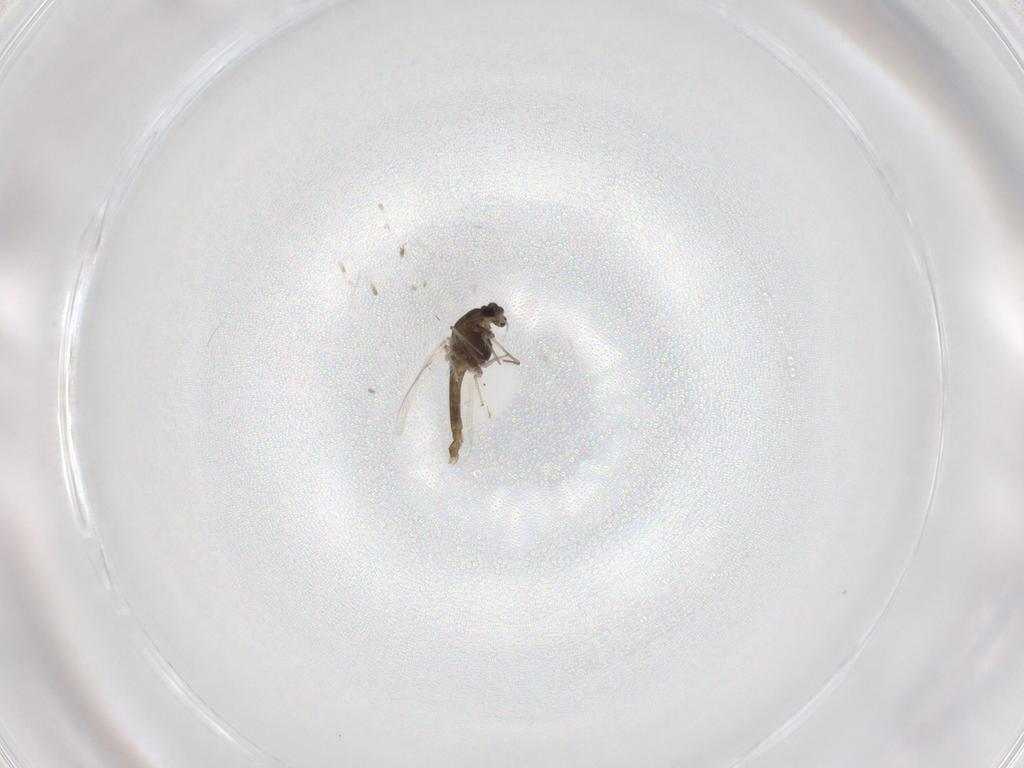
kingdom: Animalia
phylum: Arthropoda
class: Insecta
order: Diptera
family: Chironomidae
